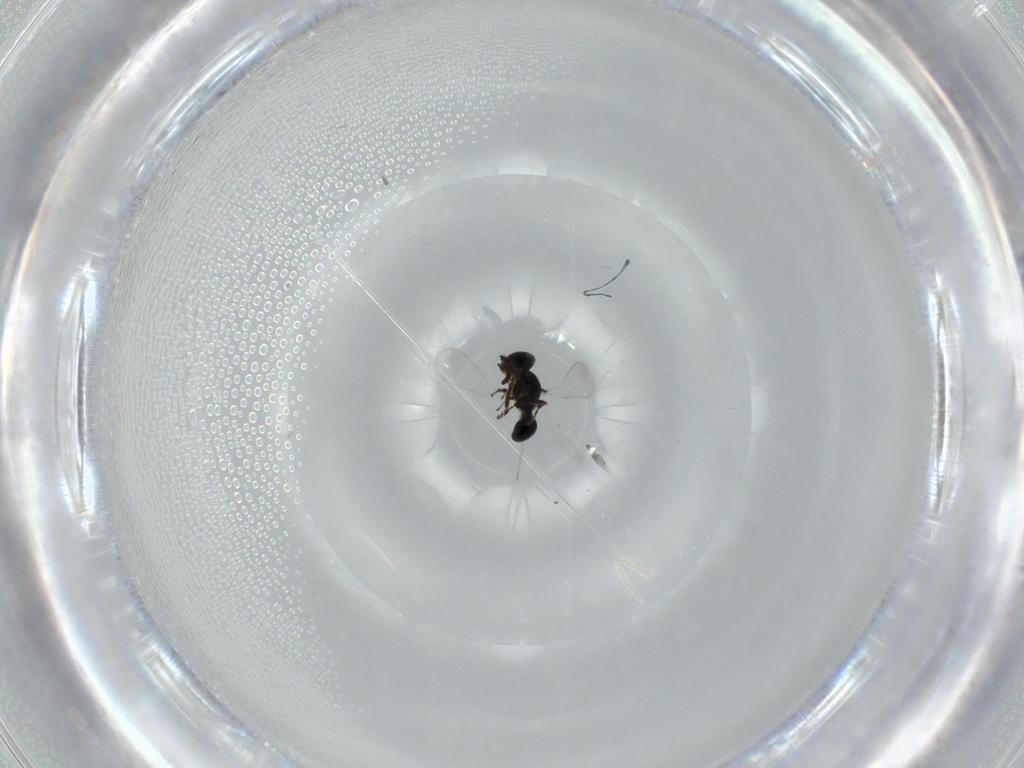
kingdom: Animalia
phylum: Arthropoda
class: Insecta
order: Hymenoptera
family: Platygastridae
